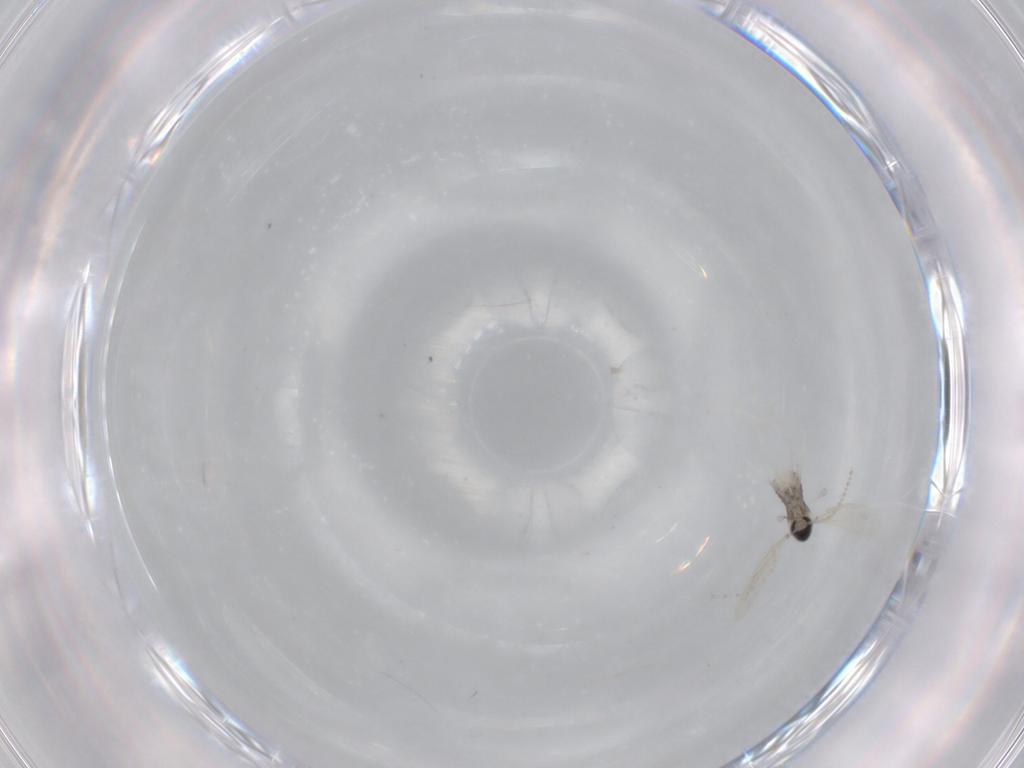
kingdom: Animalia
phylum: Arthropoda
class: Insecta
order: Diptera
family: Cecidomyiidae
